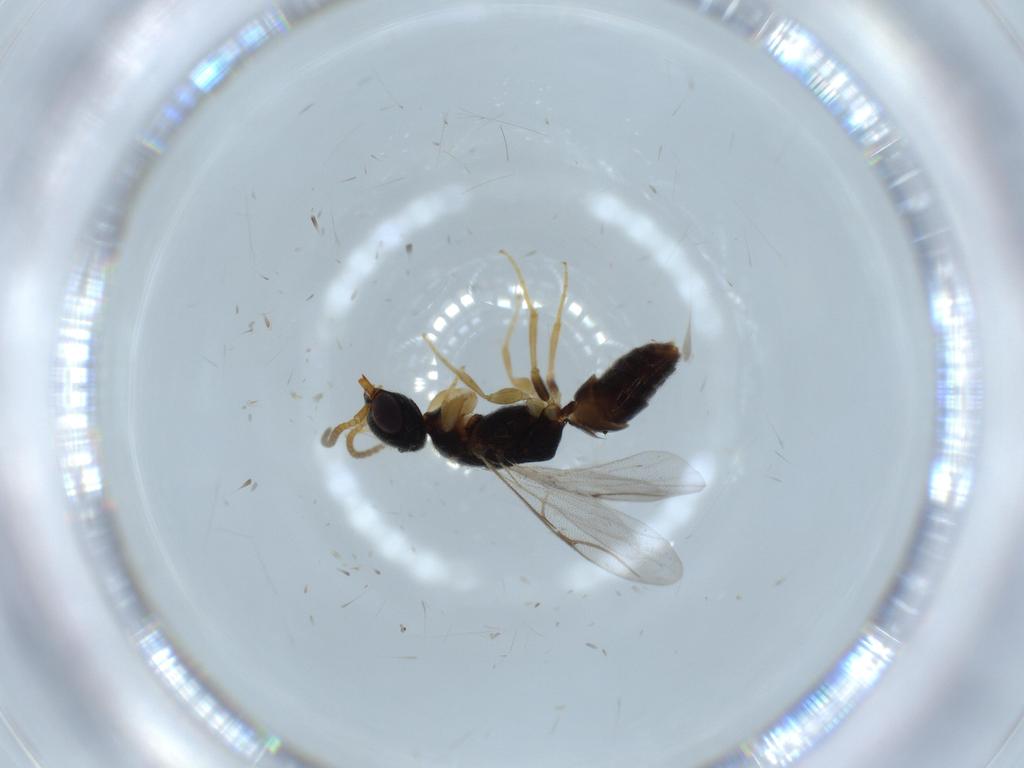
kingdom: Animalia
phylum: Arthropoda
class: Insecta
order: Hymenoptera
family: Bethylidae
